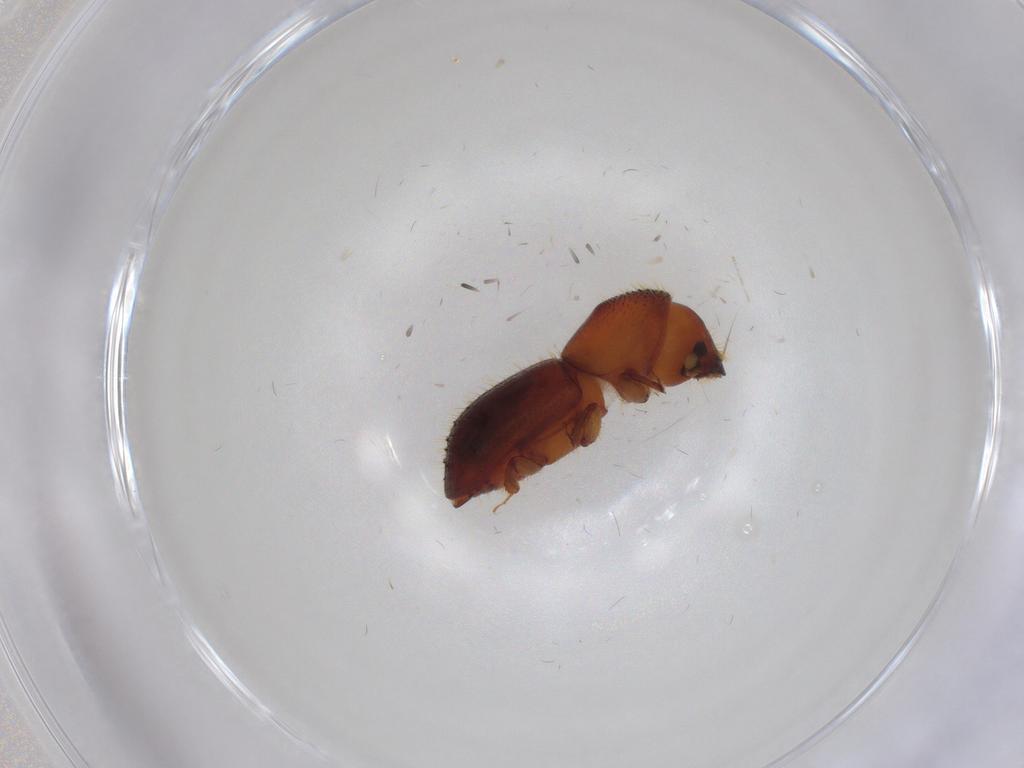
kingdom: Animalia
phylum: Arthropoda
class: Insecta
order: Coleoptera
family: Curculionidae
